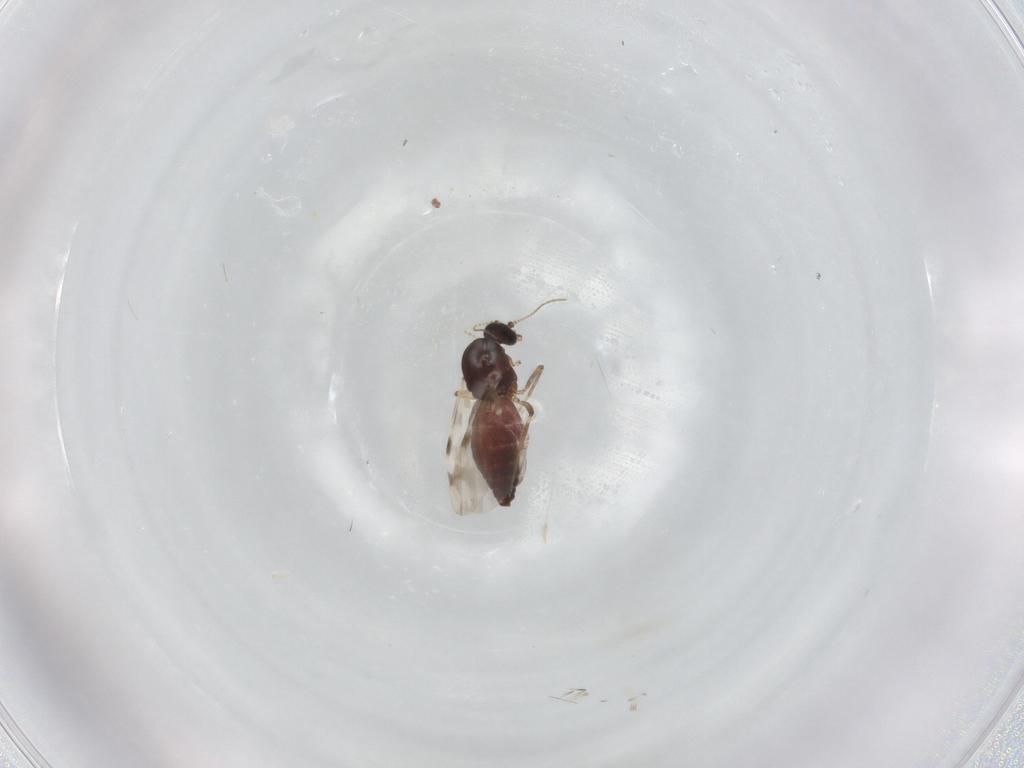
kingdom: Animalia
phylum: Arthropoda
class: Insecta
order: Diptera
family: Ceratopogonidae
